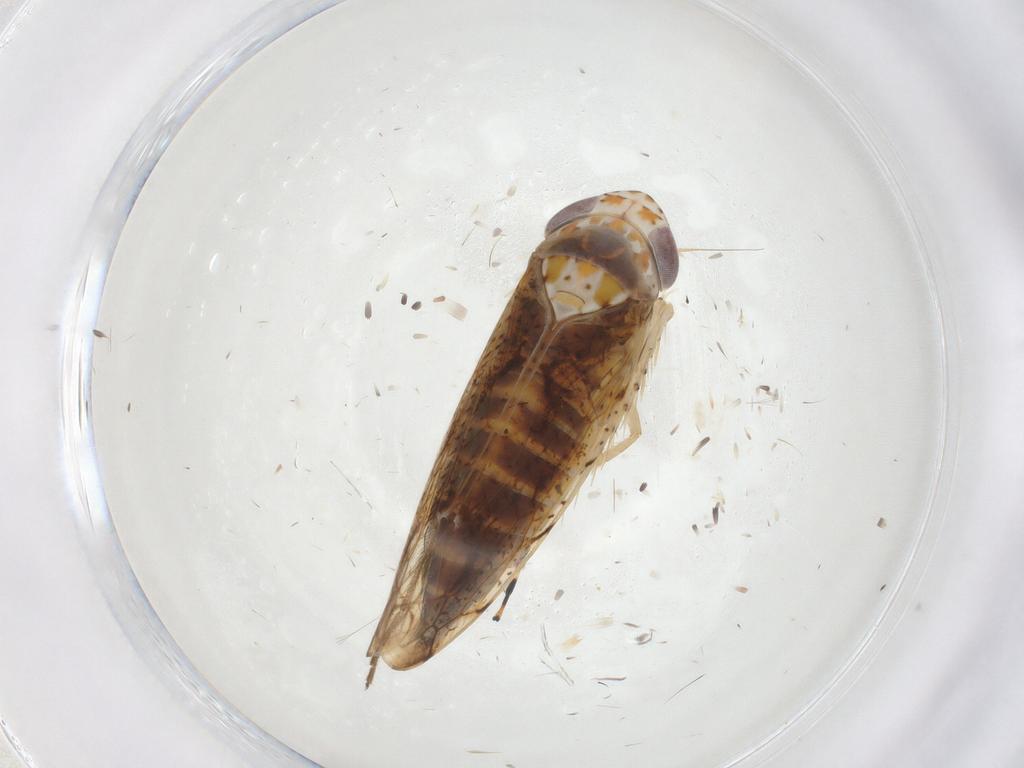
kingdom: Animalia
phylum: Arthropoda
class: Insecta
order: Hemiptera
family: Cicadellidae
